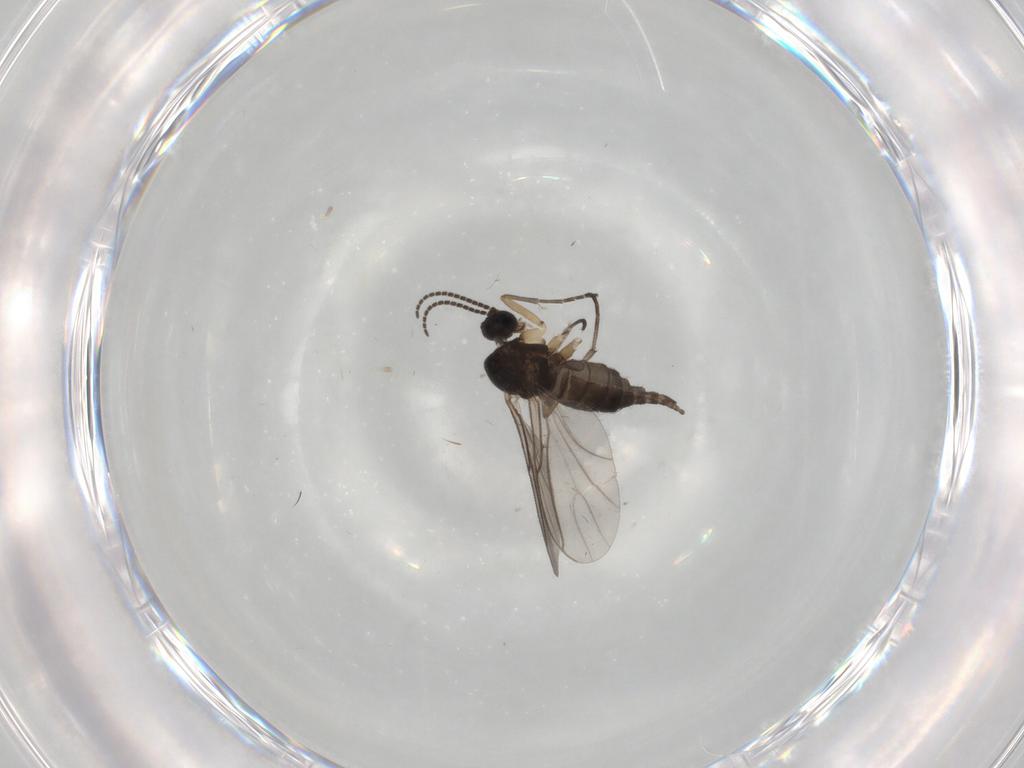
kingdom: Animalia
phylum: Arthropoda
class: Insecta
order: Diptera
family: Sciaridae
